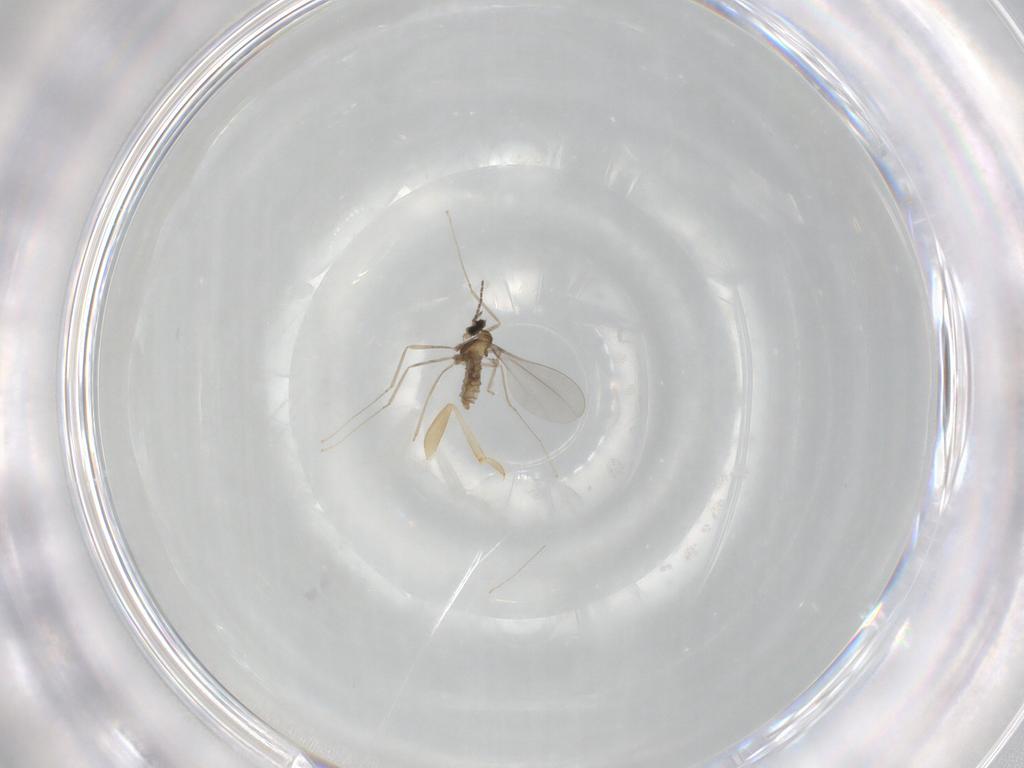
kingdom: Animalia
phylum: Arthropoda
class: Insecta
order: Diptera
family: Cecidomyiidae
